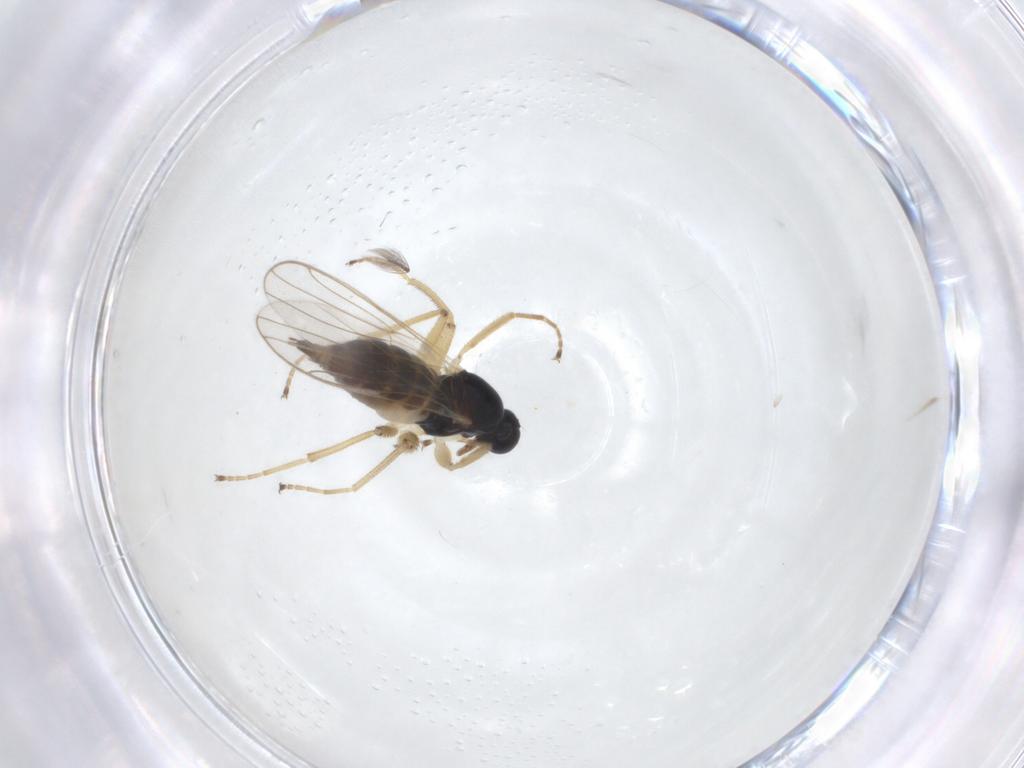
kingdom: Animalia
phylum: Arthropoda
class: Insecta
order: Diptera
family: Hybotidae
